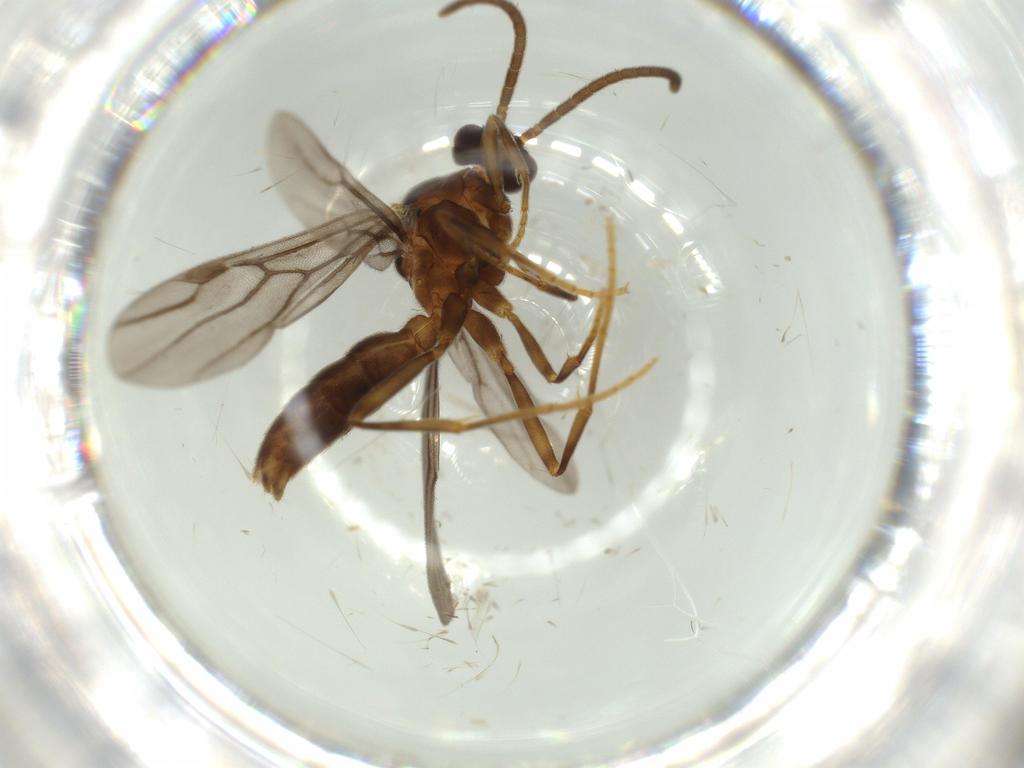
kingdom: Animalia
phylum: Arthropoda
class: Insecta
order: Hymenoptera
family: Formicidae
